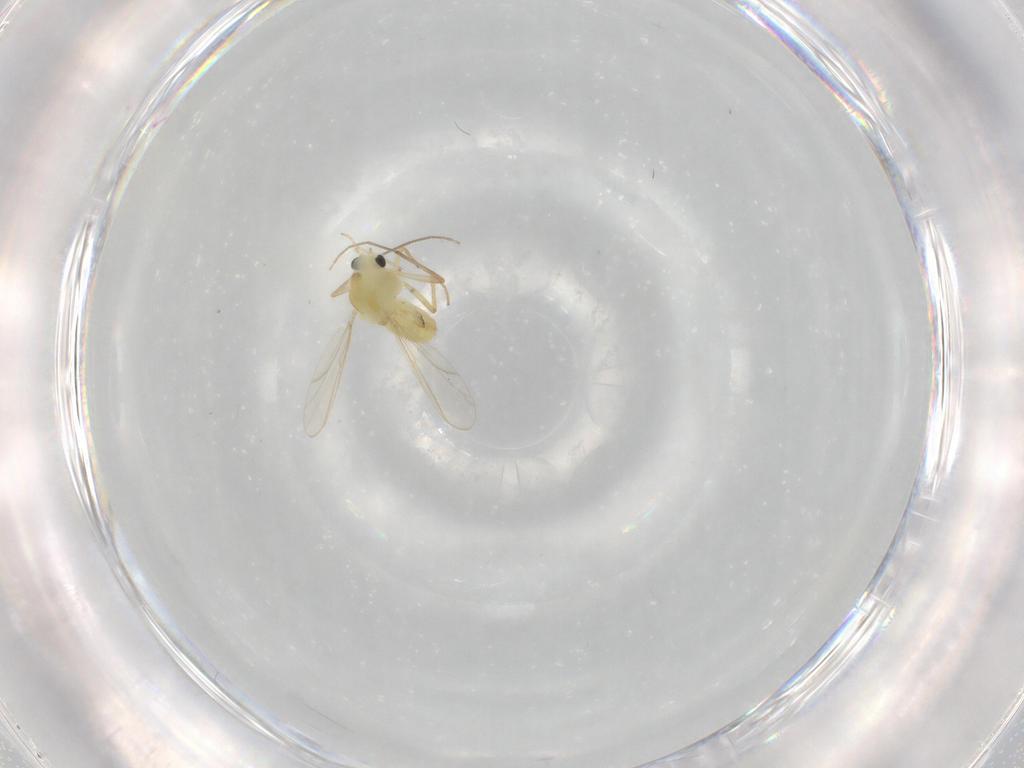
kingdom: Animalia
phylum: Arthropoda
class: Insecta
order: Diptera
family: Chironomidae
